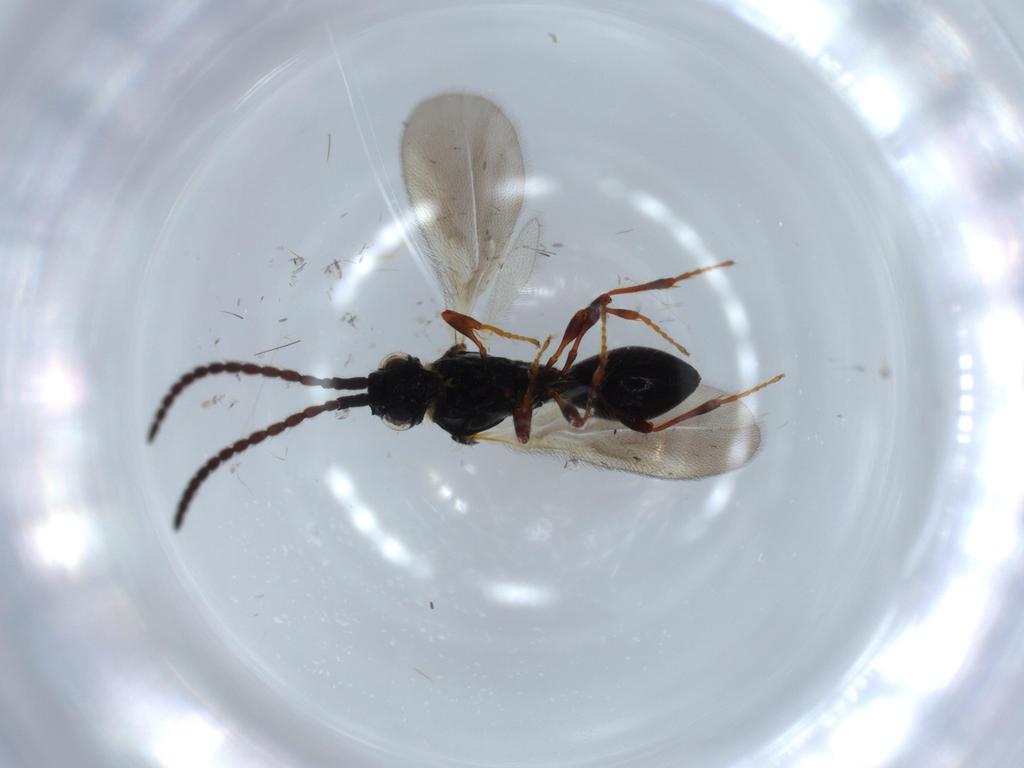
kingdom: Animalia
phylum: Arthropoda
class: Insecta
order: Hymenoptera
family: Diapriidae
